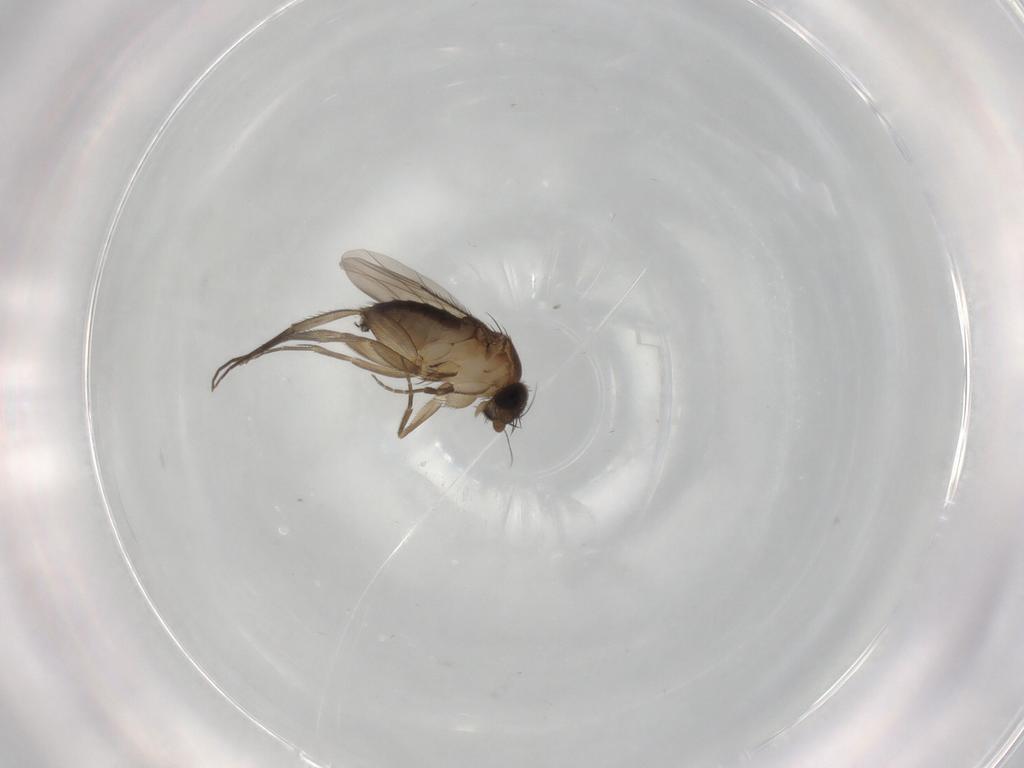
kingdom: Animalia
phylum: Arthropoda
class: Insecta
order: Diptera
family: Phoridae
